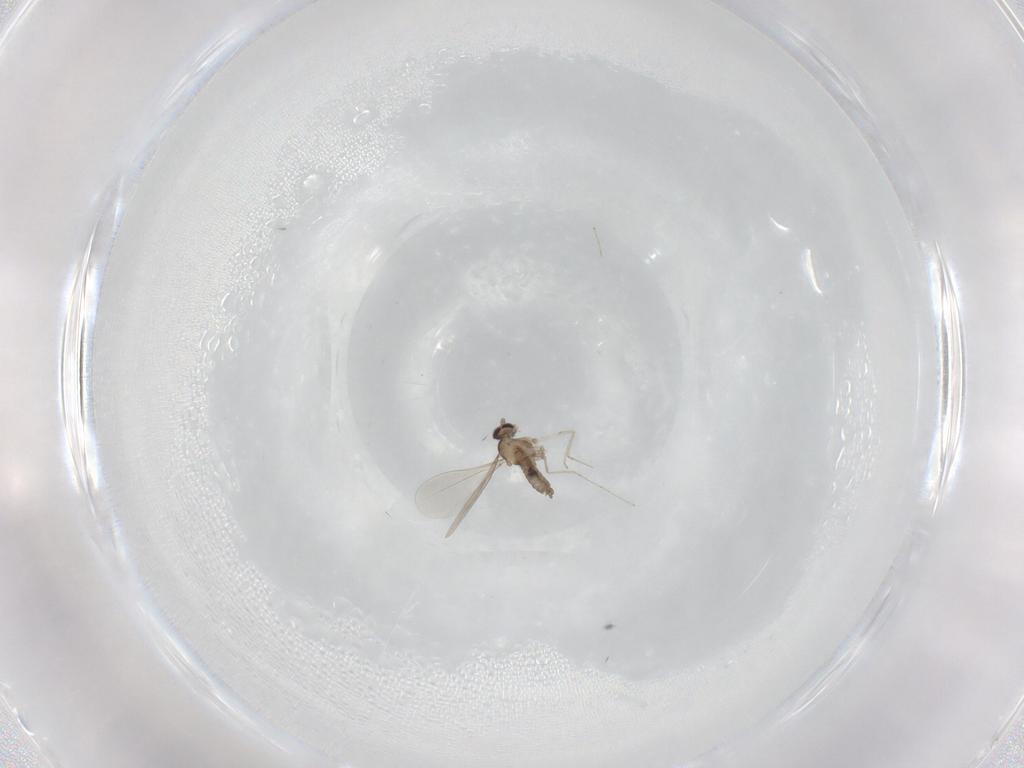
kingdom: Animalia
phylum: Arthropoda
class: Insecta
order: Diptera
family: Cecidomyiidae
